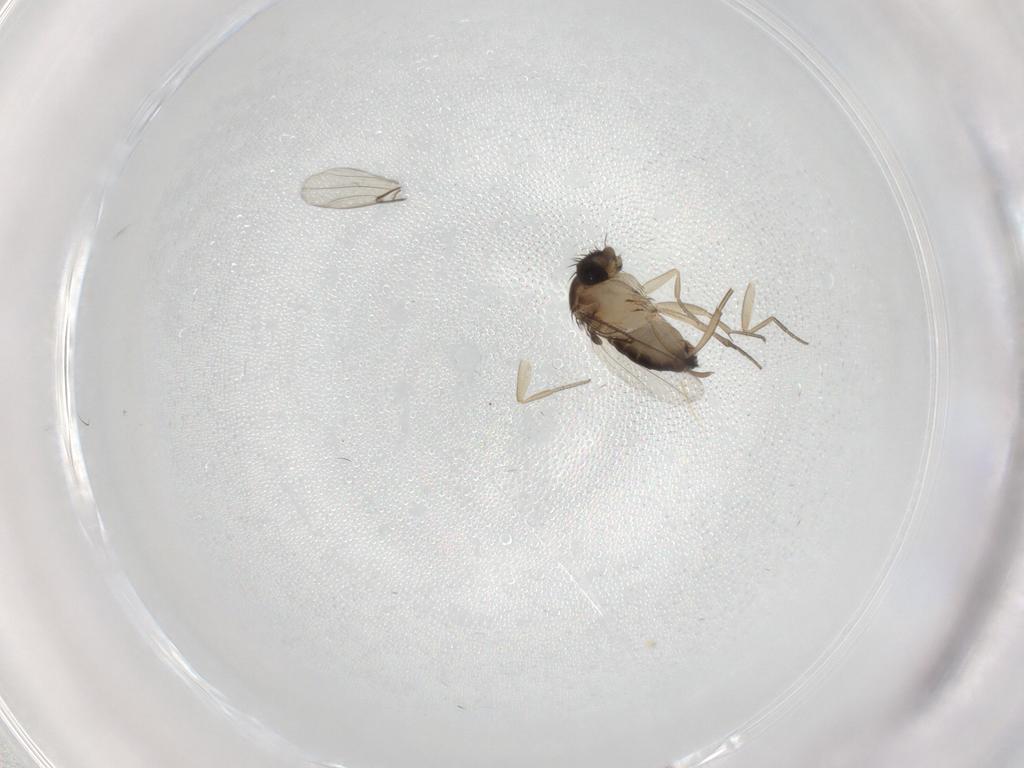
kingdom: Animalia
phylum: Arthropoda
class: Insecta
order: Diptera
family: Phoridae
